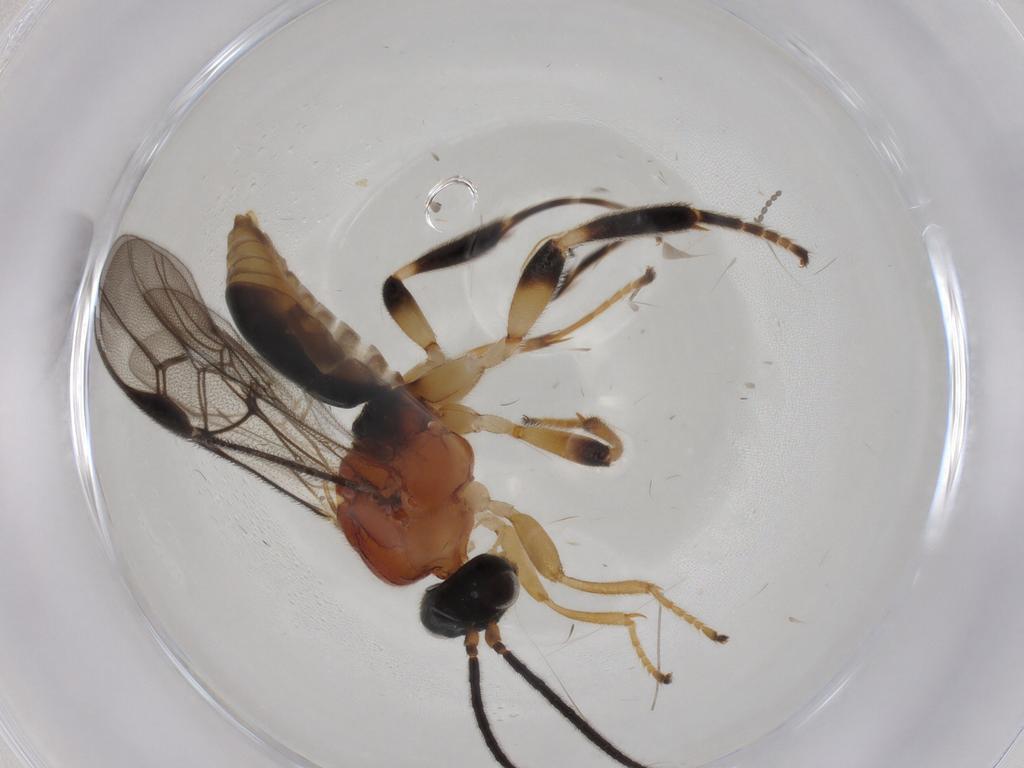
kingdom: Animalia
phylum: Arthropoda
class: Insecta
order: Hymenoptera
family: Braconidae
